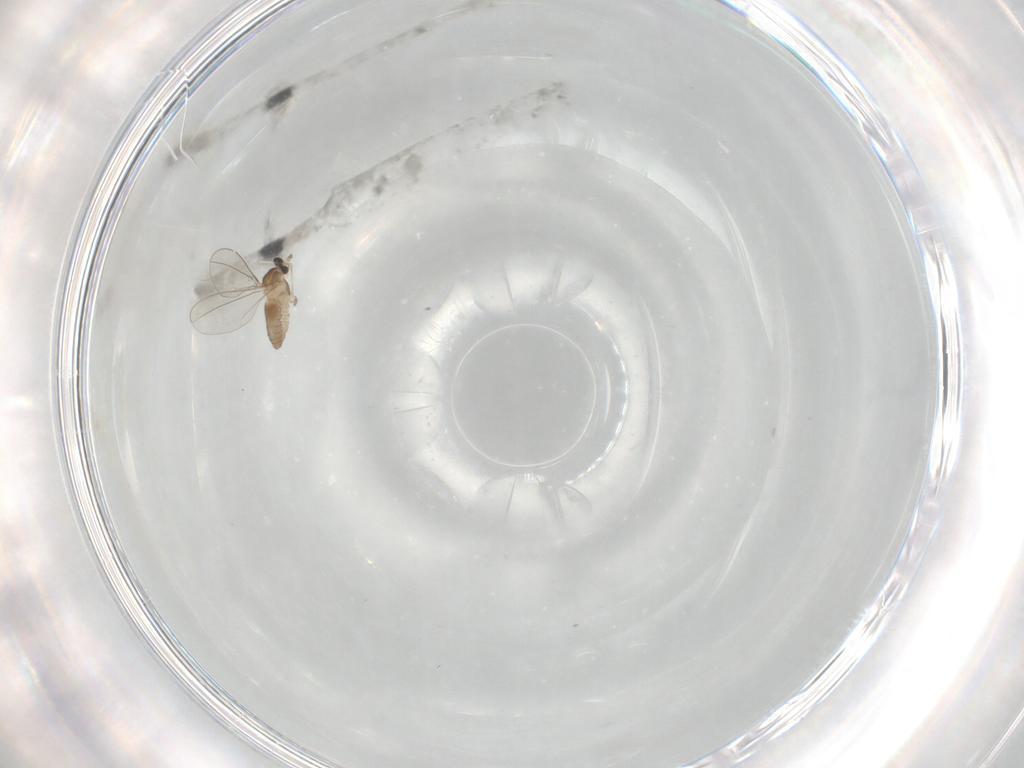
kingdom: Animalia
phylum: Arthropoda
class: Insecta
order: Diptera
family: Cecidomyiidae
